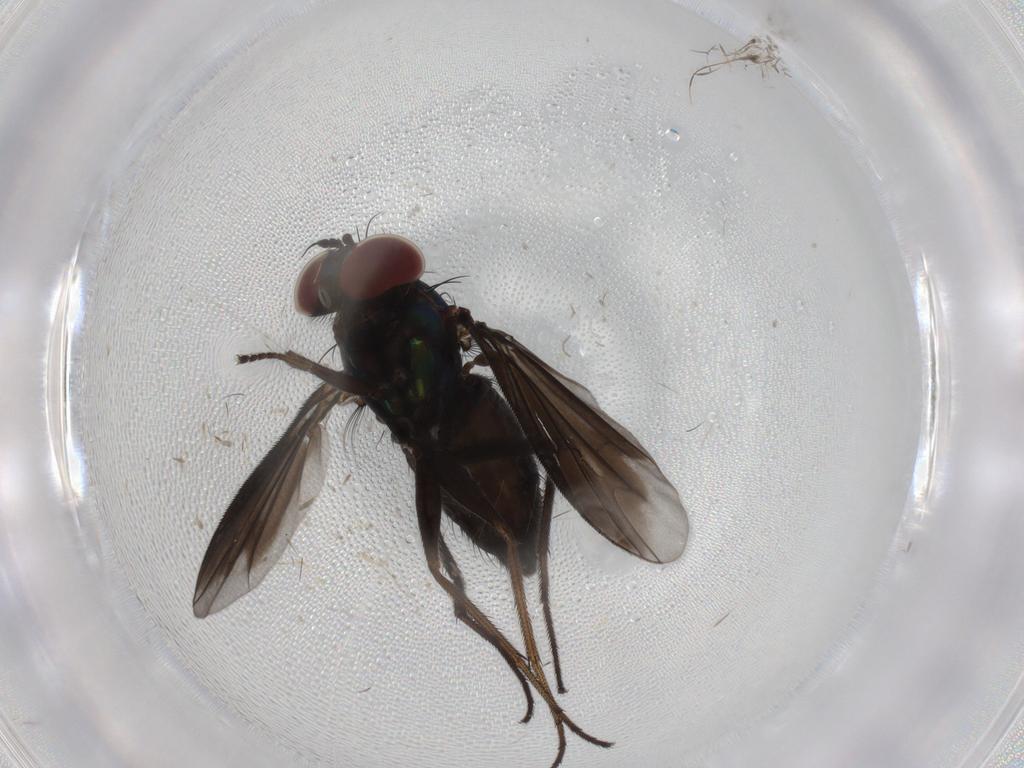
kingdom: Animalia
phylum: Arthropoda
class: Insecta
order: Diptera
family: Dolichopodidae
